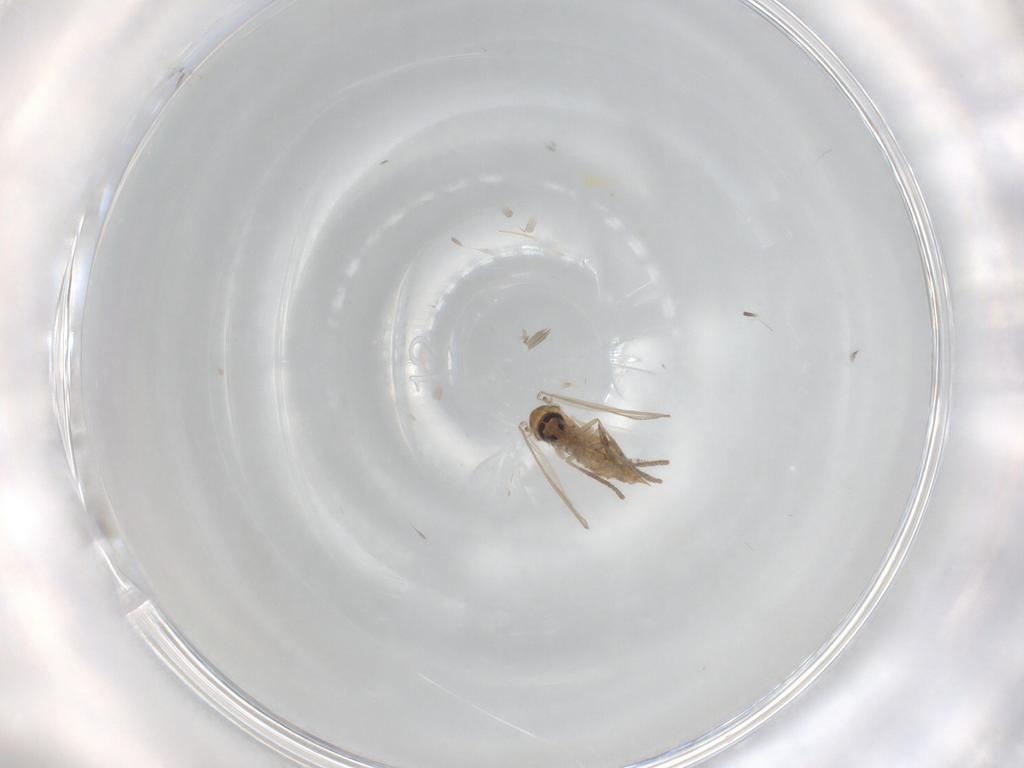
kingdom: Animalia
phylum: Arthropoda
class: Insecta
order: Diptera
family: Psychodidae
